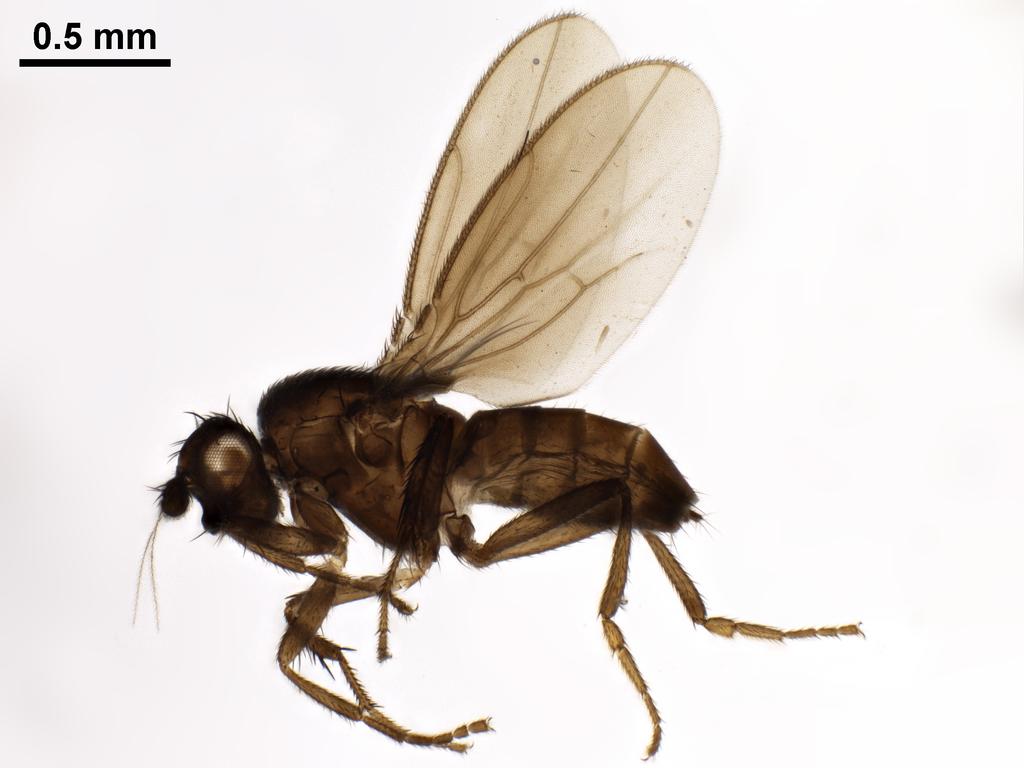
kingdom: Animalia
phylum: Arthropoda
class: Insecta
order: Diptera
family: Sphaeroceridae
